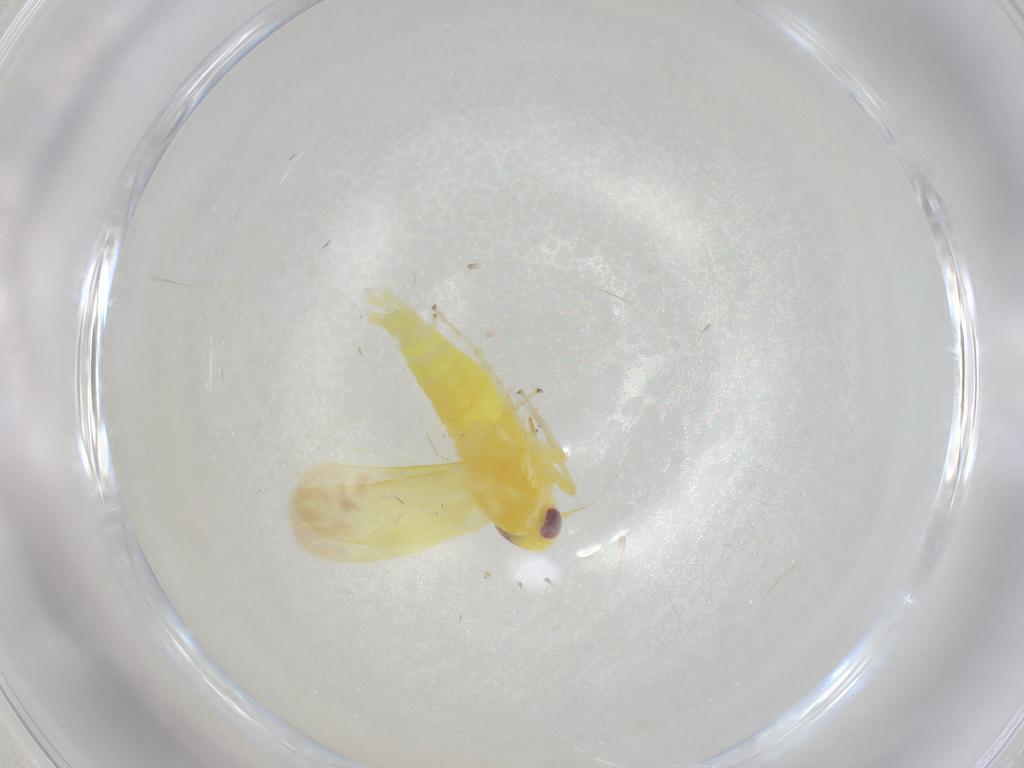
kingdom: Animalia
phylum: Arthropoda
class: Insecta
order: Hemiptera
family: Cicadellidae
